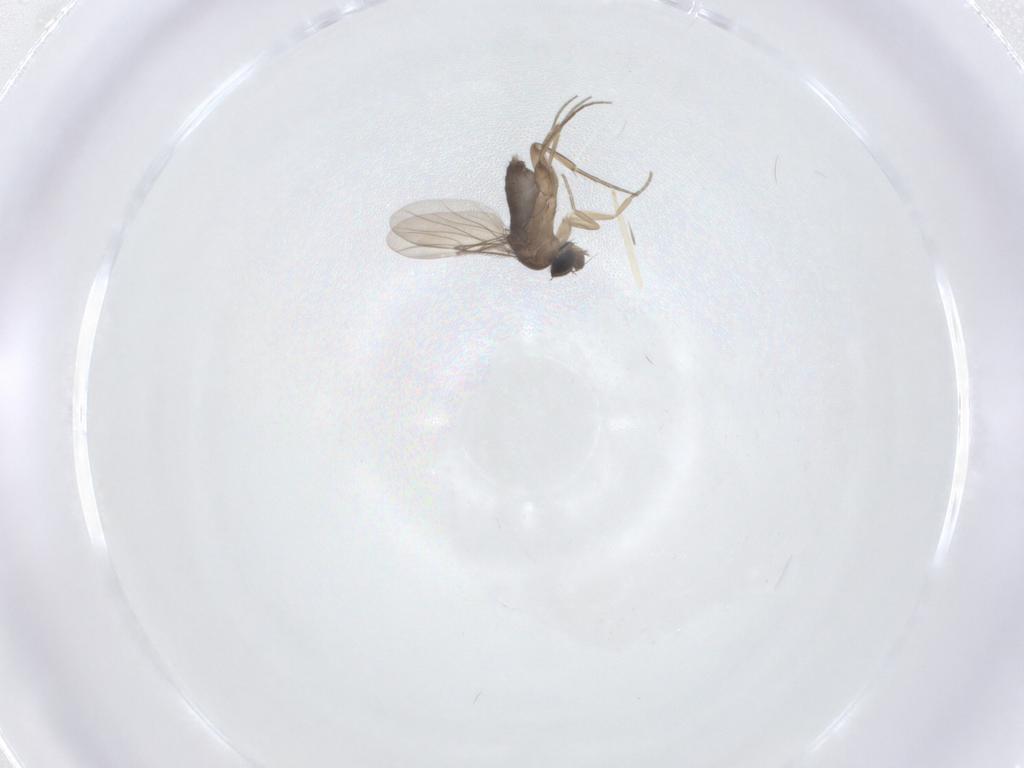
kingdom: Animalia
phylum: Arthropoda
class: Insecta
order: Diptera
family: Phoridae
